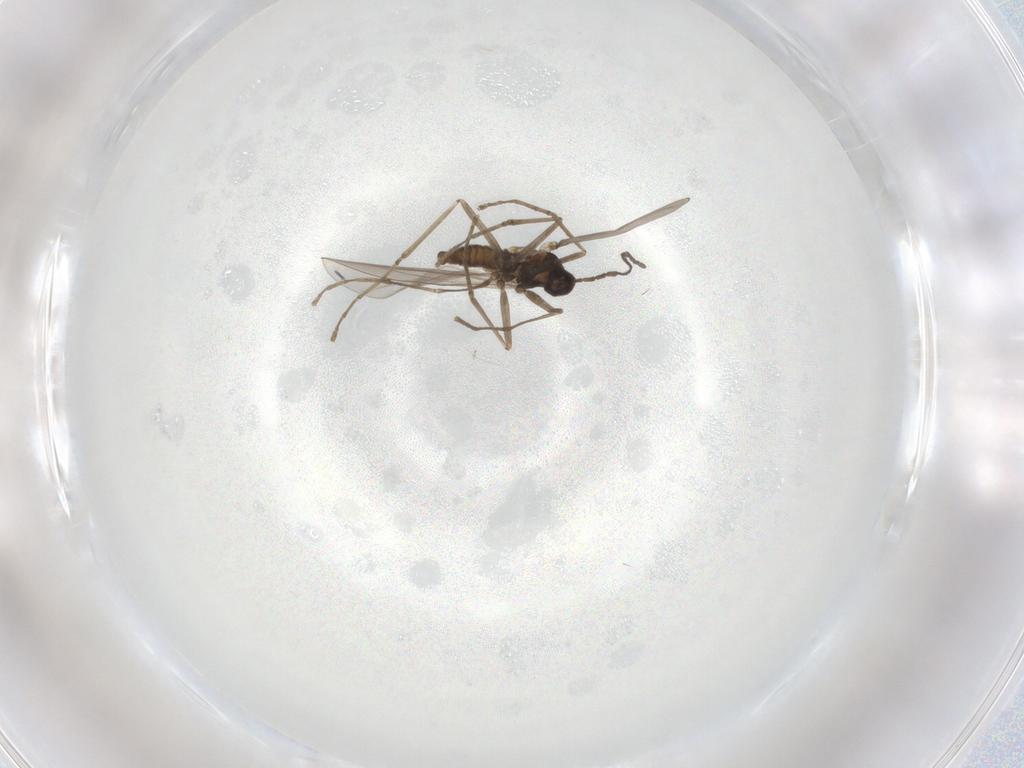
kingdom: Animalia
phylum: Arthropoda
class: Insecta
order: Diptera
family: Cecidomyiidae
